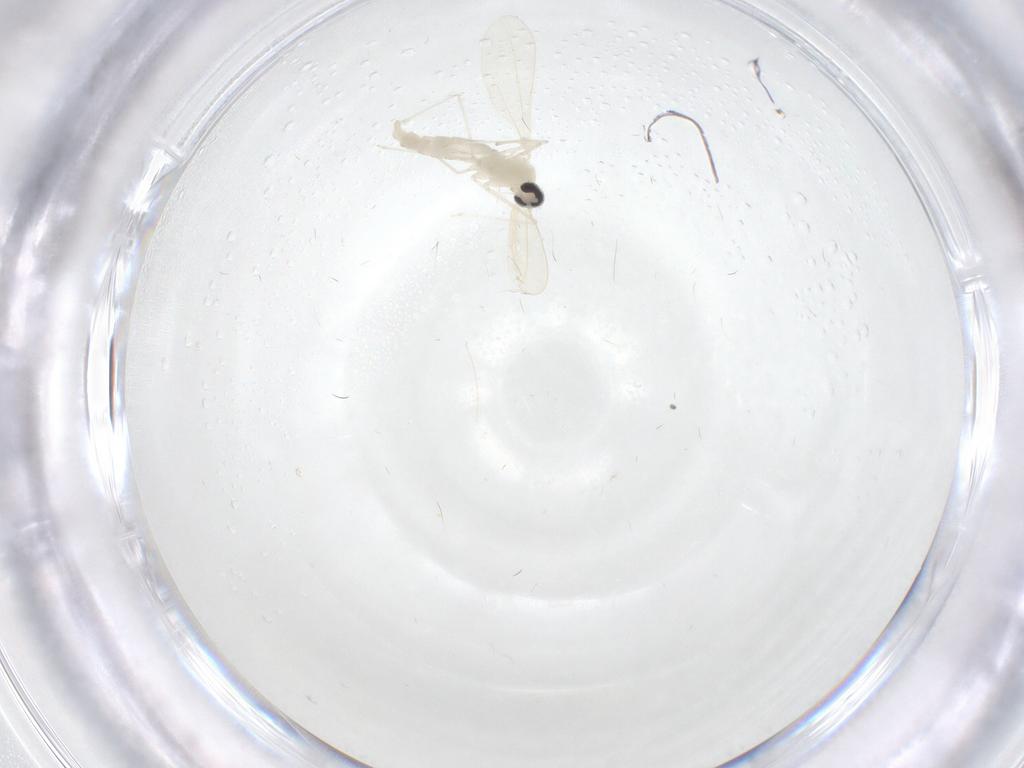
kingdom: Animalia
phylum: Arthropoda
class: Insecta
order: Diptera
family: Cecidomyiidae
